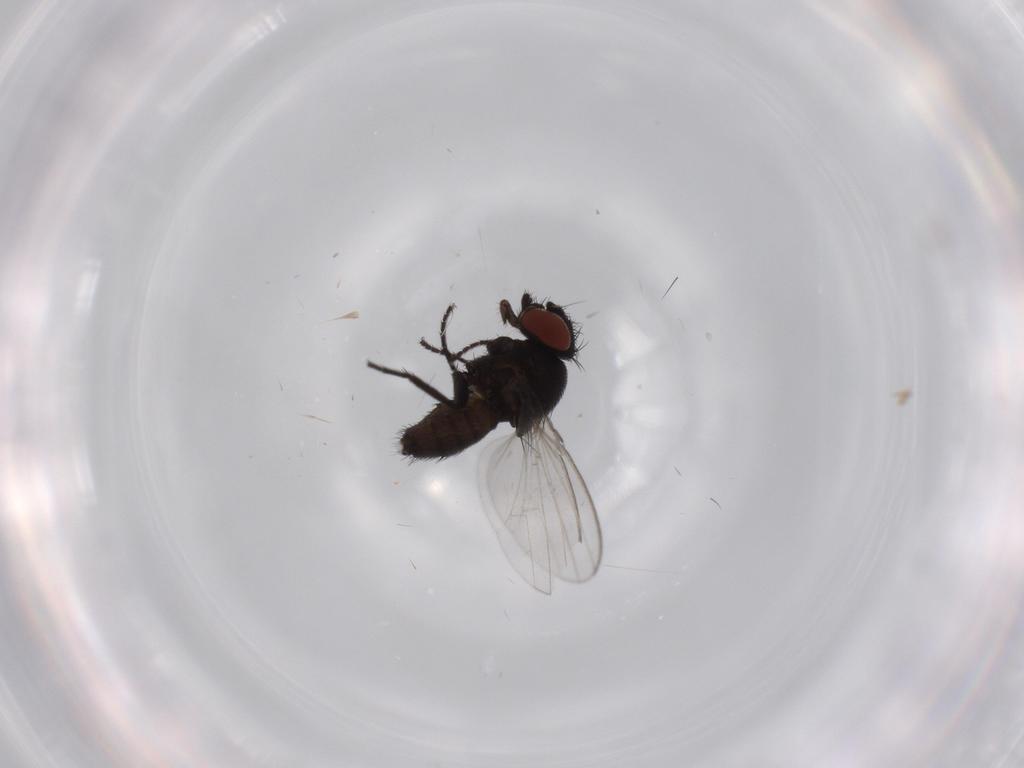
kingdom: Animalia
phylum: Arthropoda
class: Insecta
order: Diptera
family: Milichiidae
